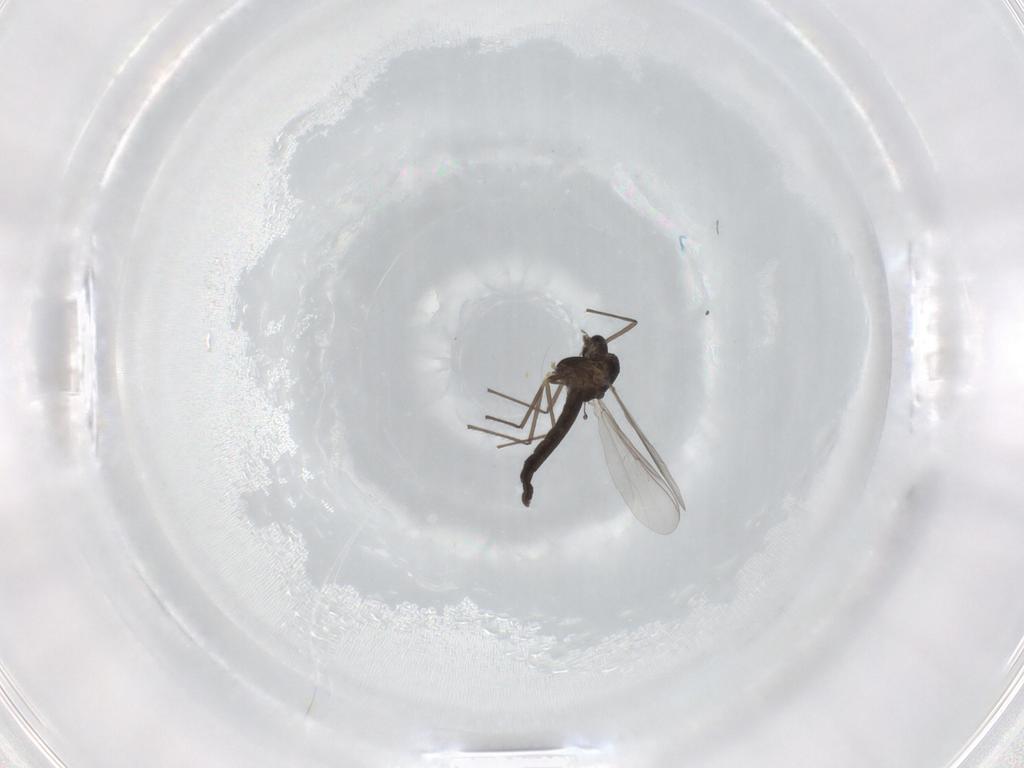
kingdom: Animalia
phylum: Arthropoda
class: Insecta
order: Diptera
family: Chironomidae
